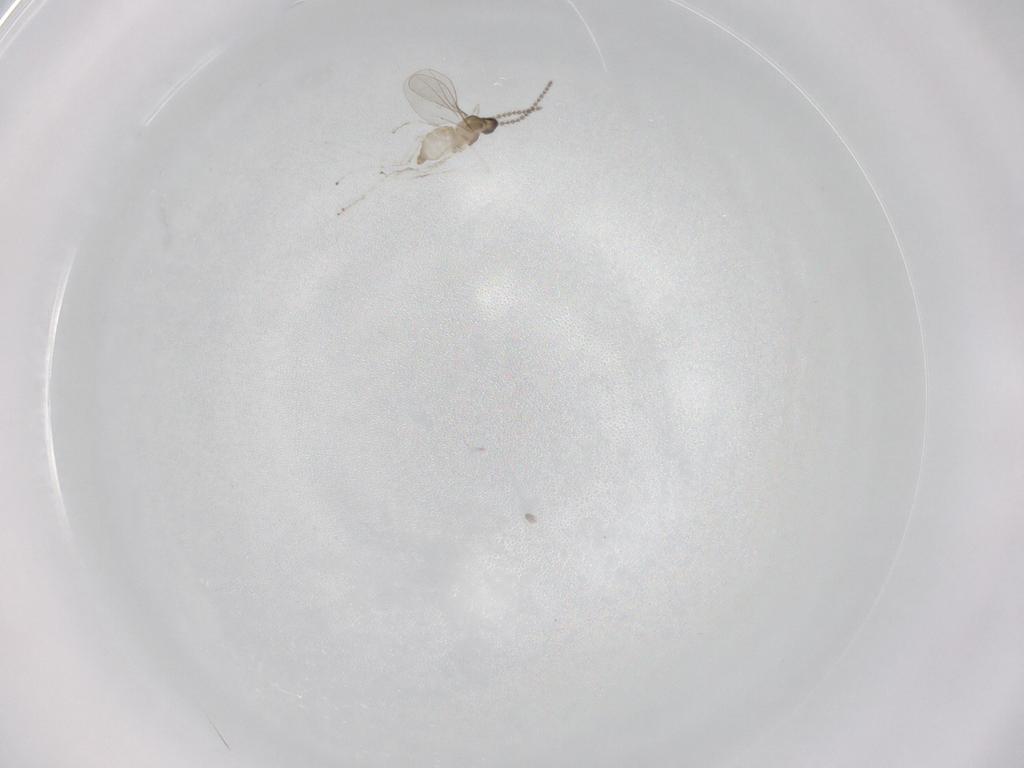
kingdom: Animalia
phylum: Arthropoda
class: Insecta
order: Diptera
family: Cecidomyiidae
